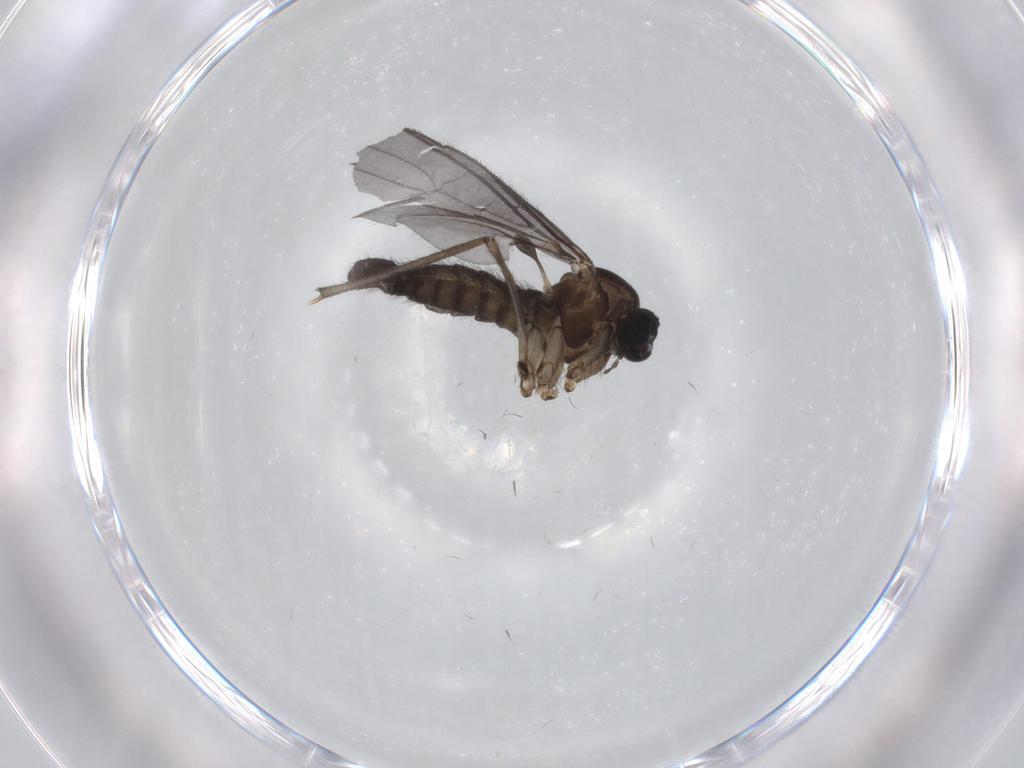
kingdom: Animalia
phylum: Arthropoda
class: Insecta
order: Diptera
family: Sciaridae
